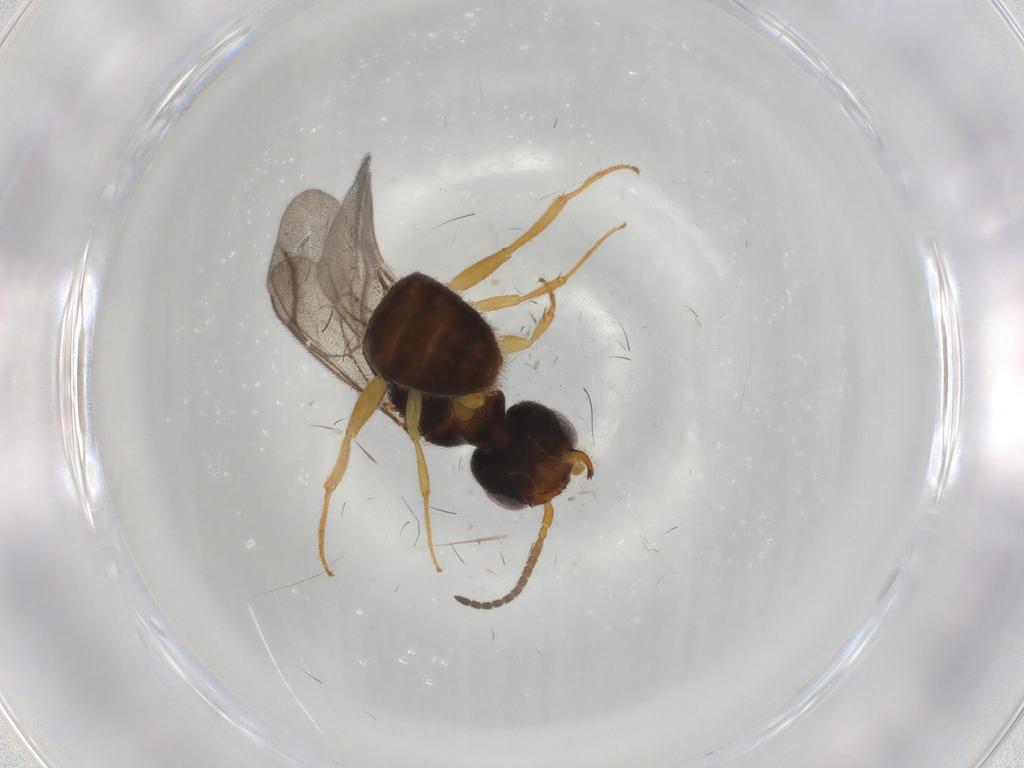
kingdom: Animalia
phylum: Arthropoda
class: Insecta
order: Hymenoptera
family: Bethylidae
